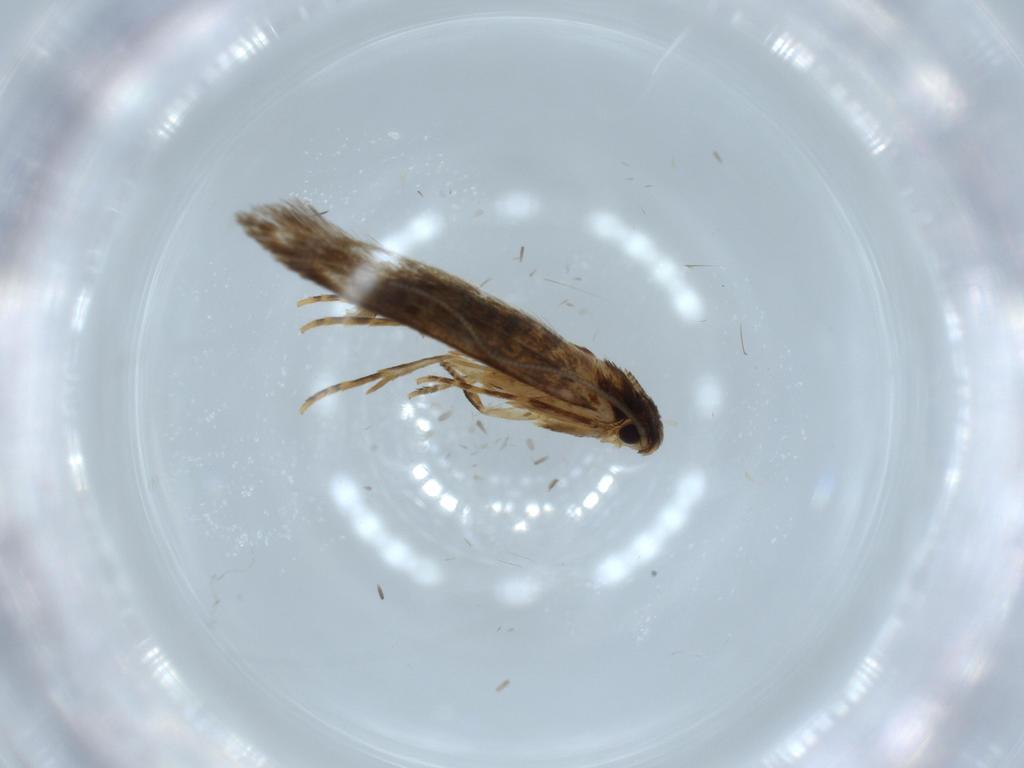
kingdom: Animalia
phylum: Arthropoda
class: Insecta
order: Lepidoptera
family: Tineidae
